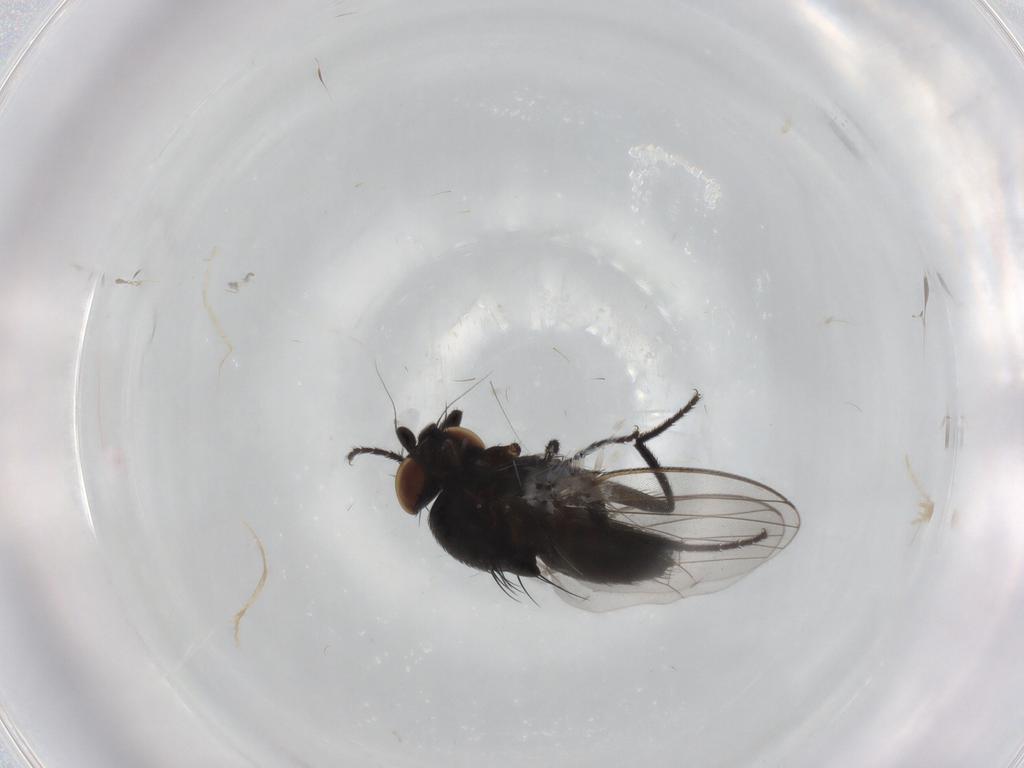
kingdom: Animalia
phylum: Arthropoda
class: Insecta
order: Diptera
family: Milichiidae
